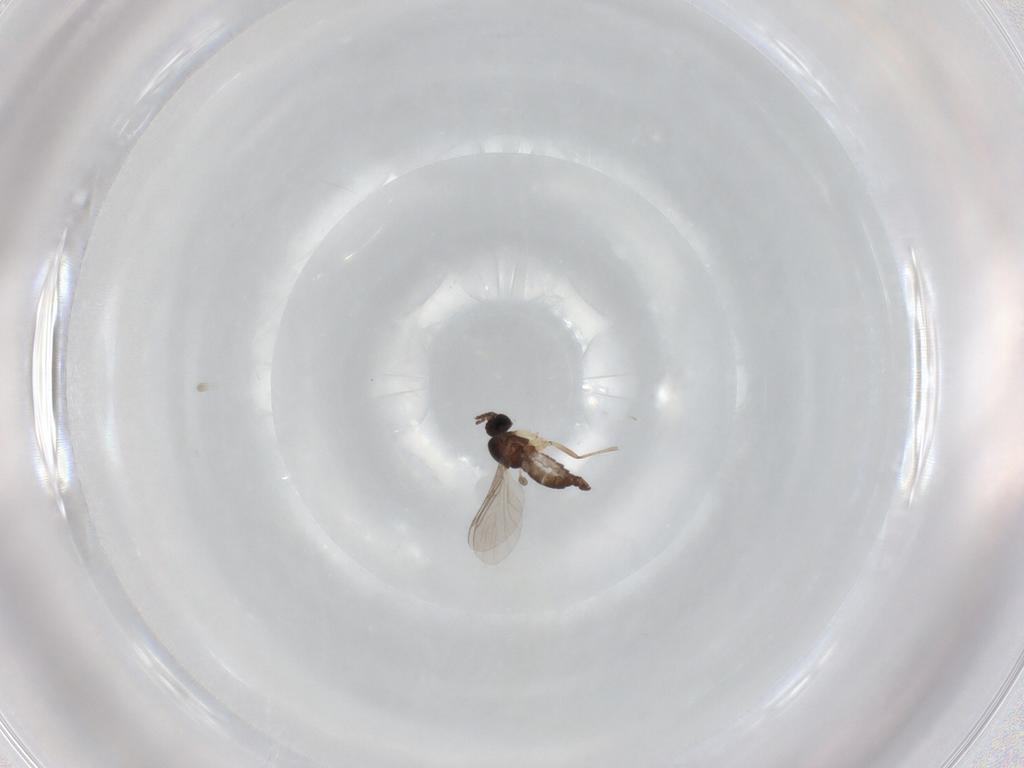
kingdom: Animalia
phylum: Arthropoda
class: Insecta
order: Diptera
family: Sciaridae
